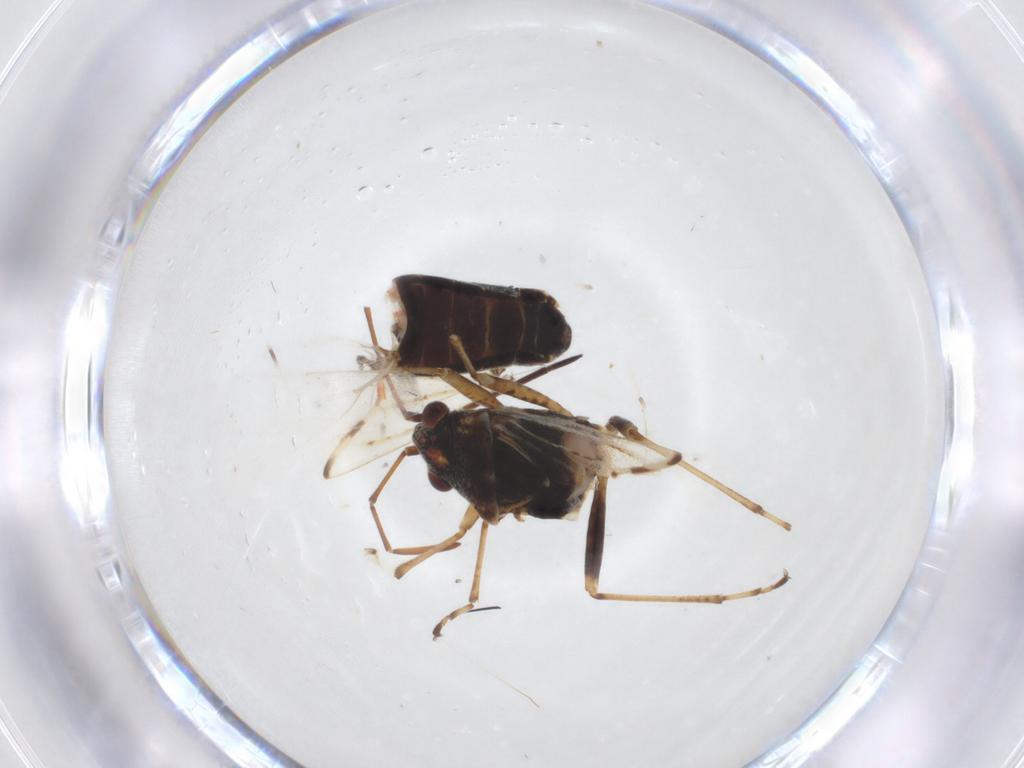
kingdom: Animalia
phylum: Arthropoda
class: Insecta
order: Hemiptera
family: Lygaeidae
